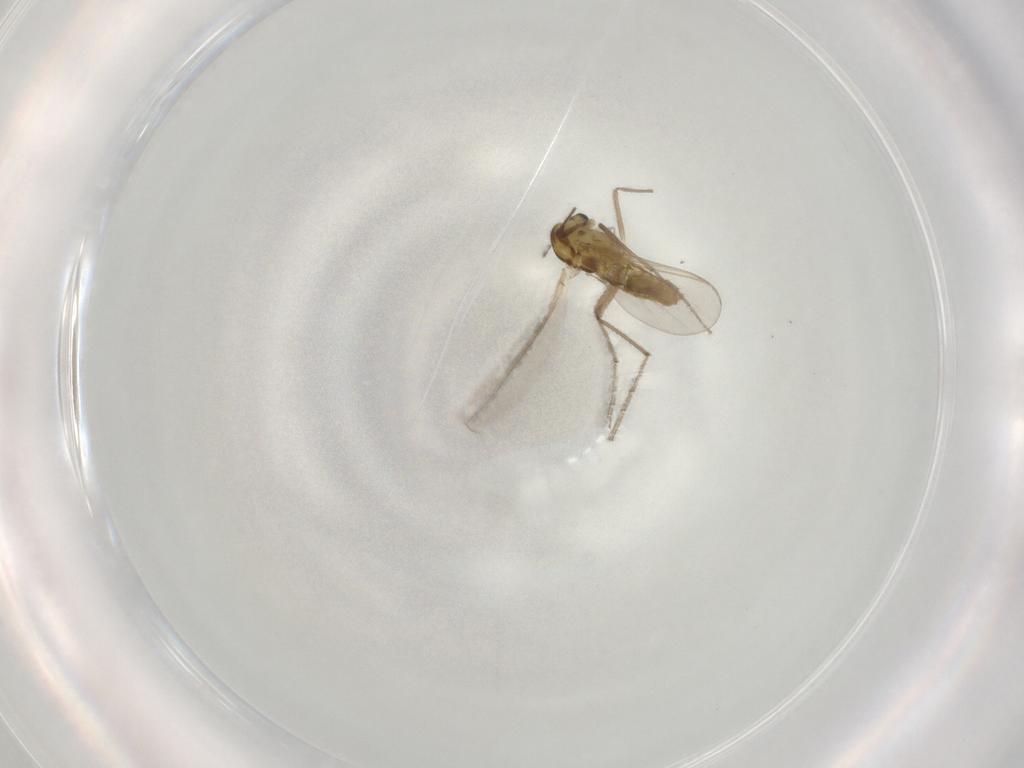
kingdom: Animalia
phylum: Arthropoda
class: Insecta
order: Diptera
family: Chironomidae
